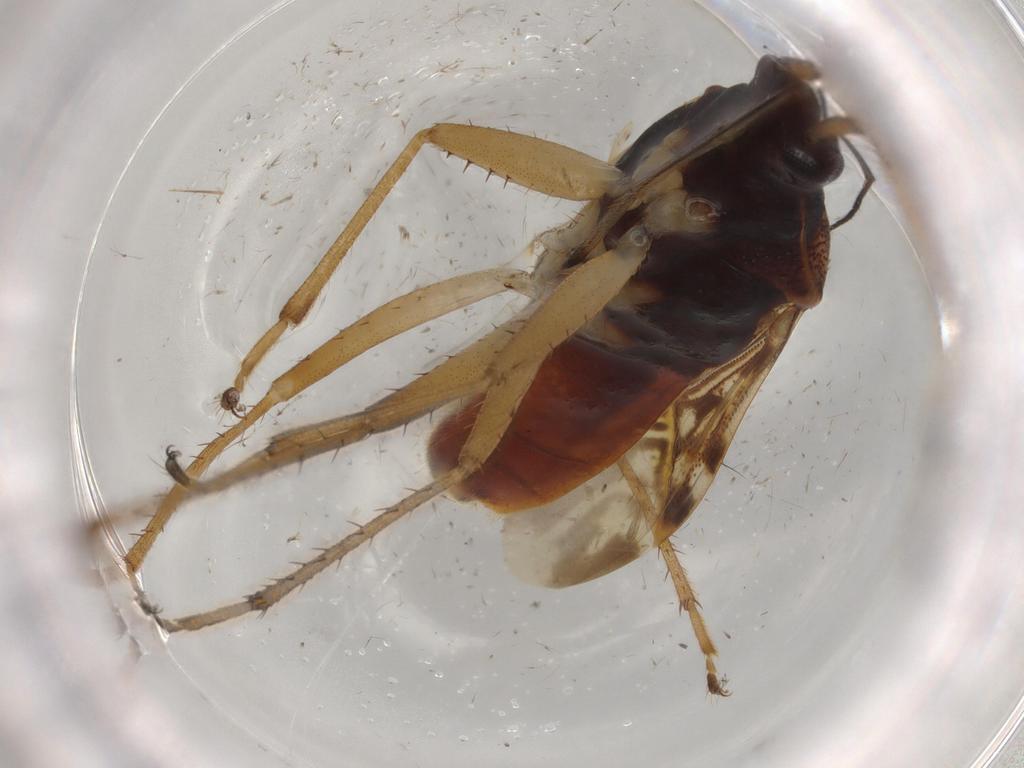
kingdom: Animalia
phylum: Arthropoda
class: Insecta
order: Hemiptera
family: Rhyparochromidae
